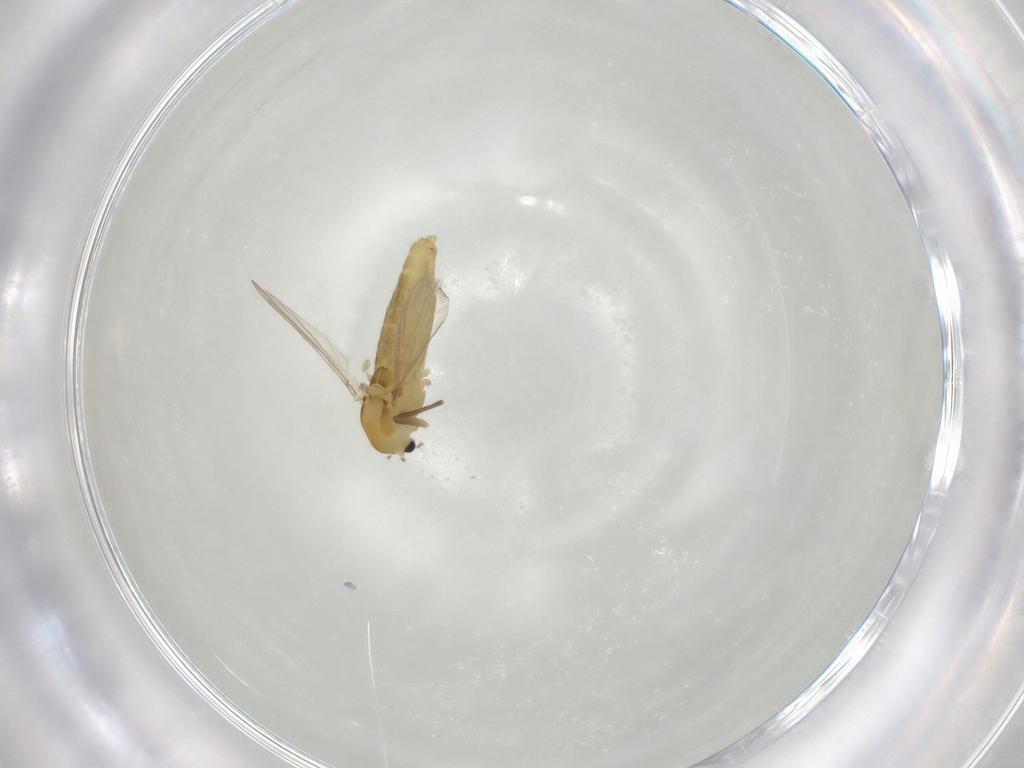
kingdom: Animalia
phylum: Arthropoda
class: Insecta
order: Diptera
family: Chironomidae
